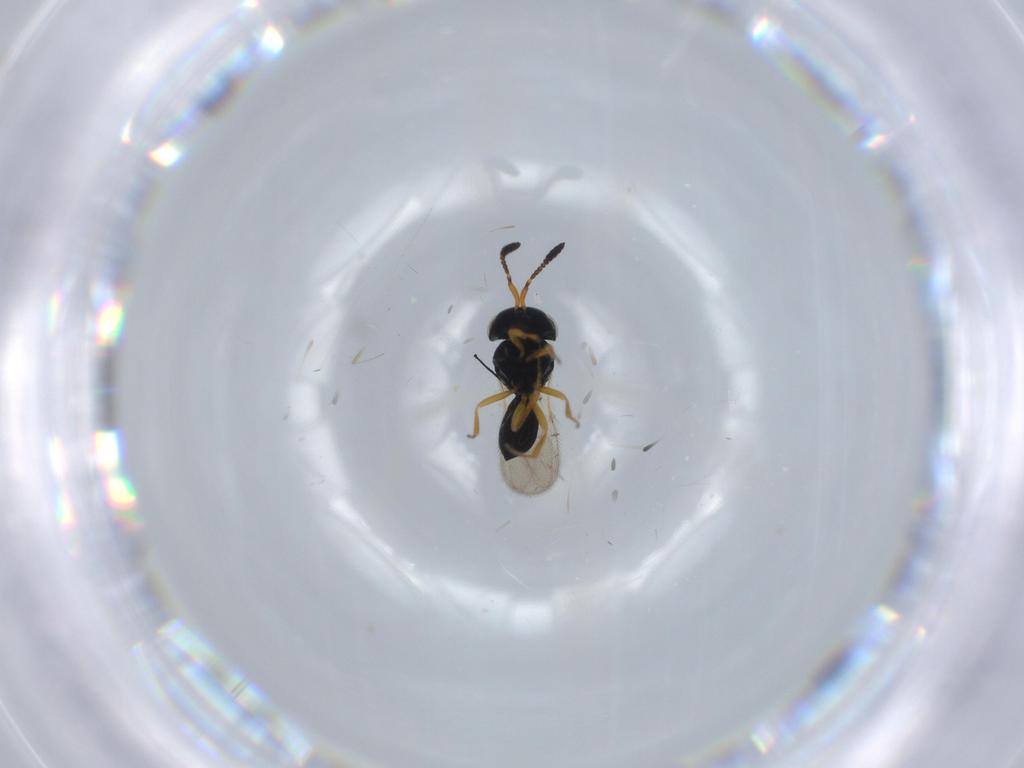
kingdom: Animalia
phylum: Arthropoda
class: Insecta
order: Hymenoptera
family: Scelionidae
